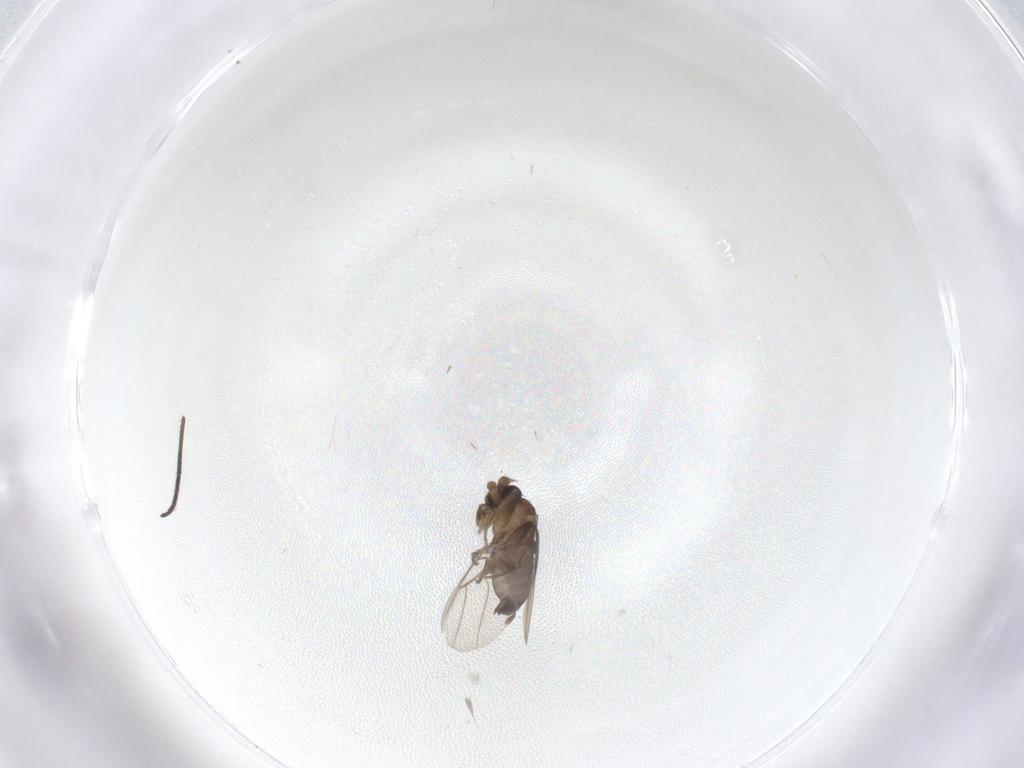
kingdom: Animalia
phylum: Arthropoda
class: Insecta
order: Diptera
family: Phoridae
